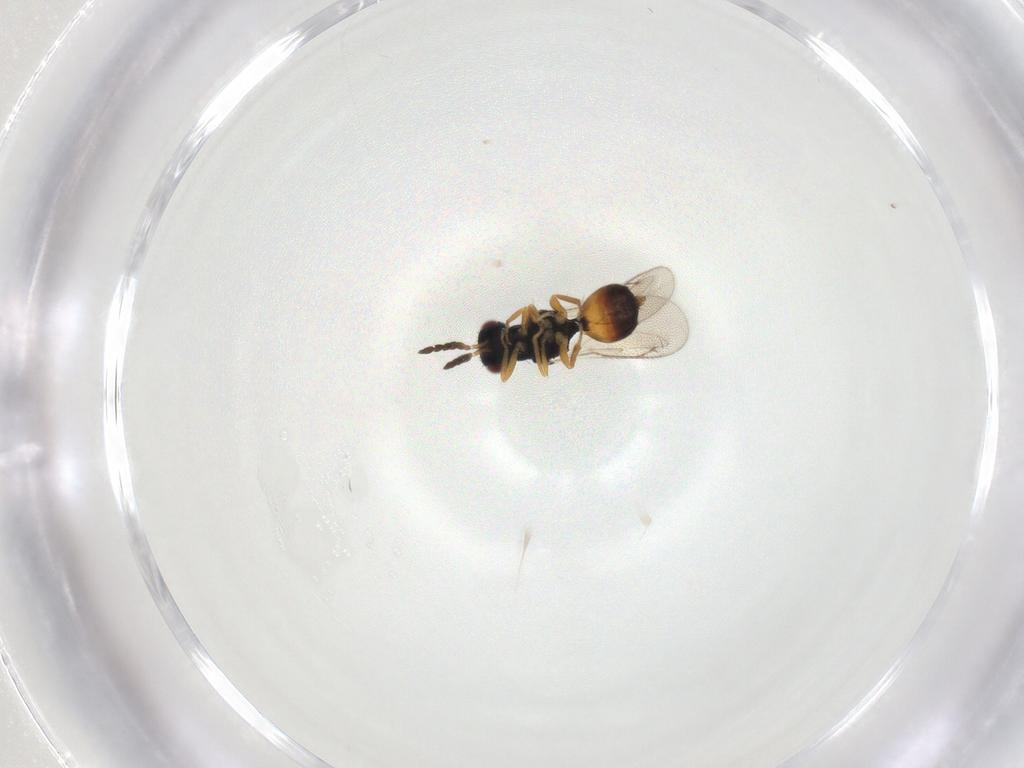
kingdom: Animalia
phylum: Arthropoda
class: Insecta
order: Hymenoptera
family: Eulophidae
